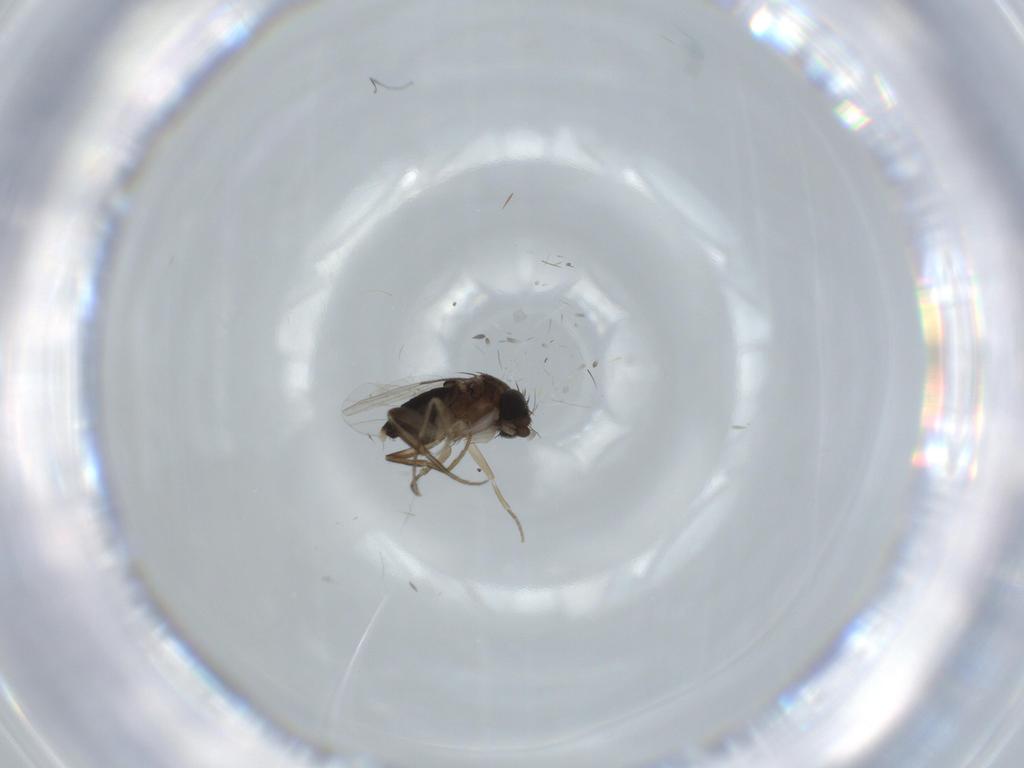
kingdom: Animalia
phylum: Arthropoda
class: Insecta
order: Diptera
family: Phoridae
